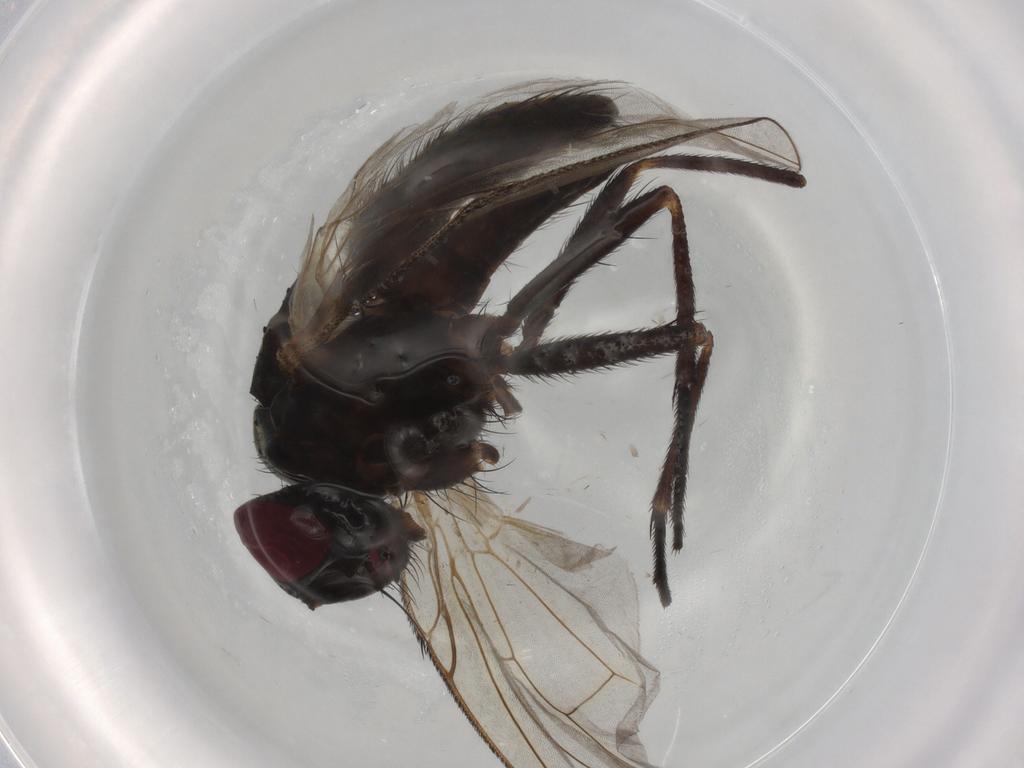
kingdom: Animalia
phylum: Arthropoda
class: Insecta
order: Diptera
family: Muscidae
